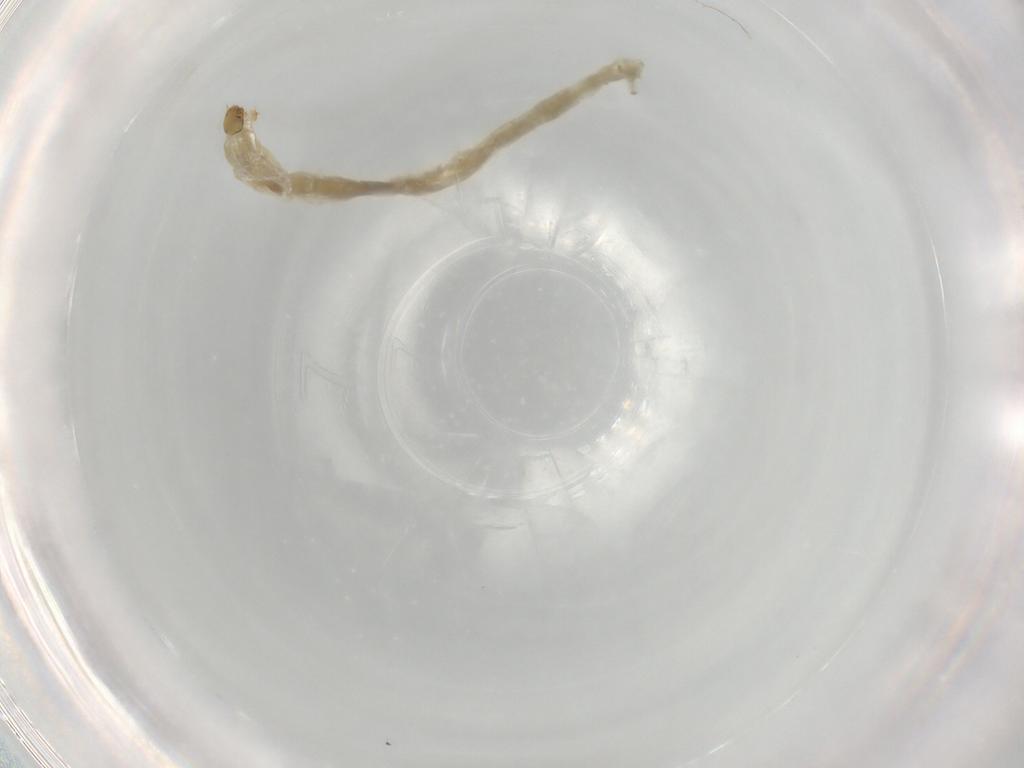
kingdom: Animalia
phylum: Arthropoda
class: Insecta
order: Diptera
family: Chironomidae
